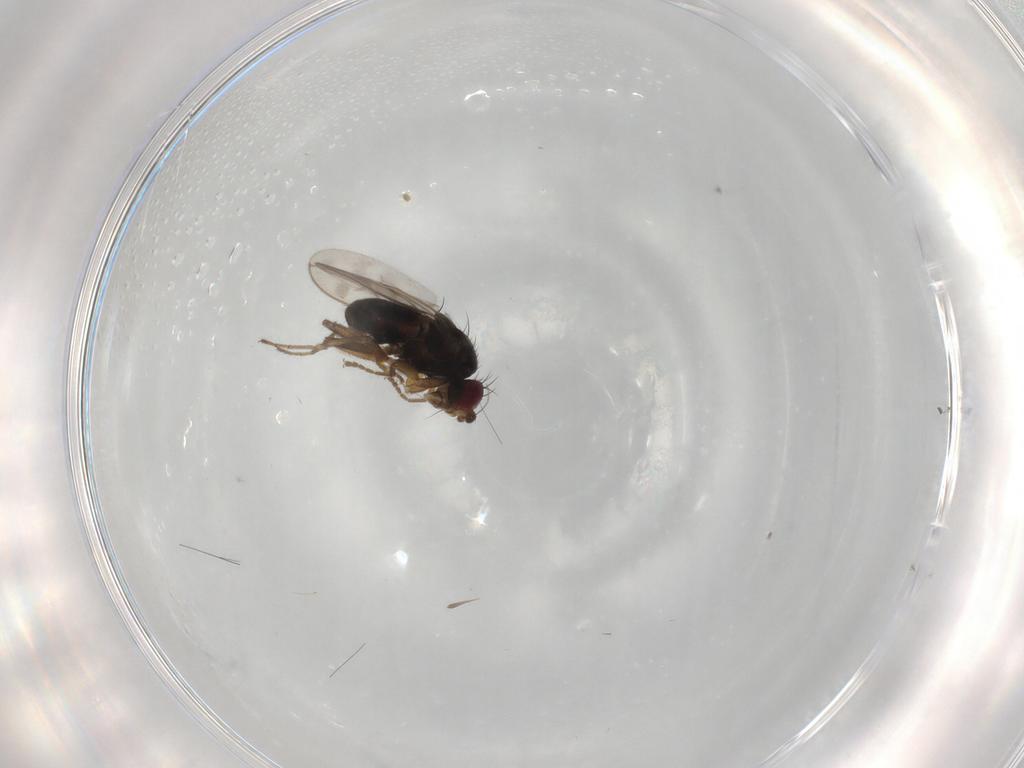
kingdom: Animalia
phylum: Arthropoda
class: Insecta
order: Diptera
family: Sphaeroceridae
